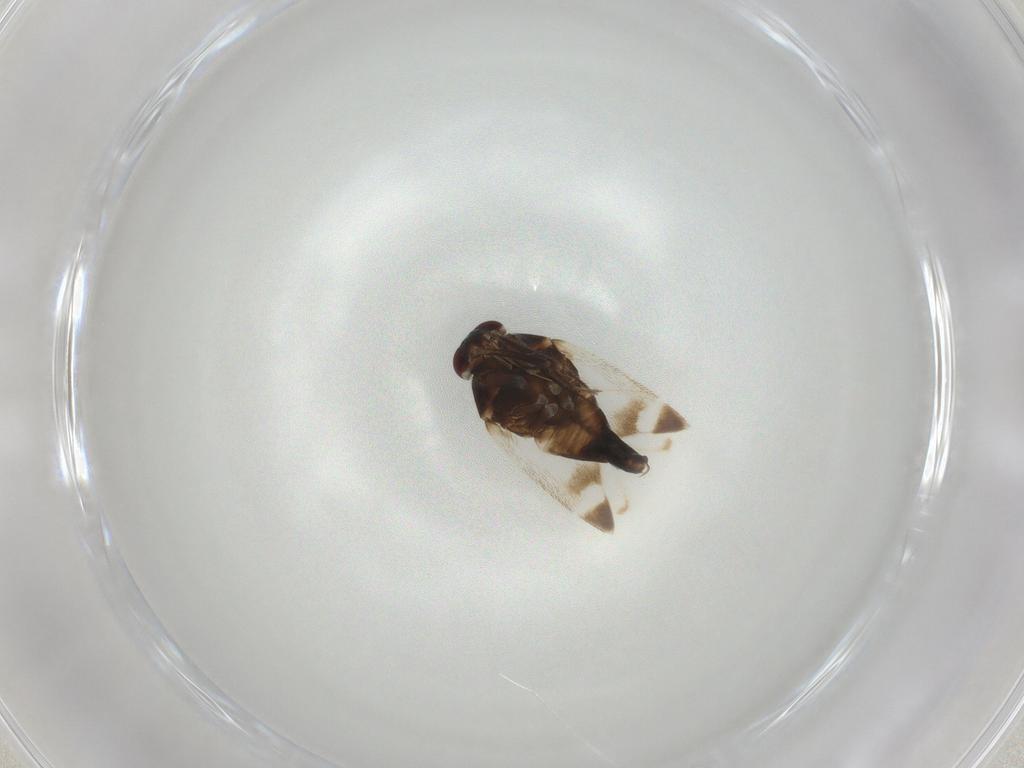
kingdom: Animalia
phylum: Arthropoda
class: Insecta
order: Hemiptera
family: Miridae
